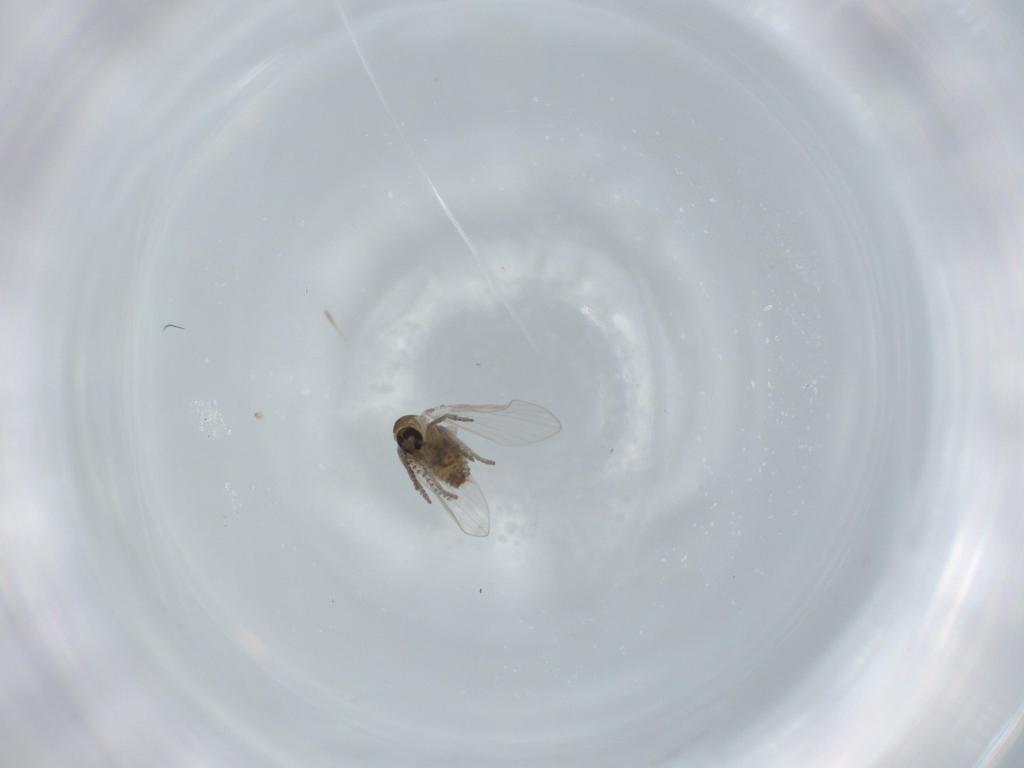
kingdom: Animalia
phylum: Arthropoda
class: Insecta
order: Diptera
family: Psychodidae
